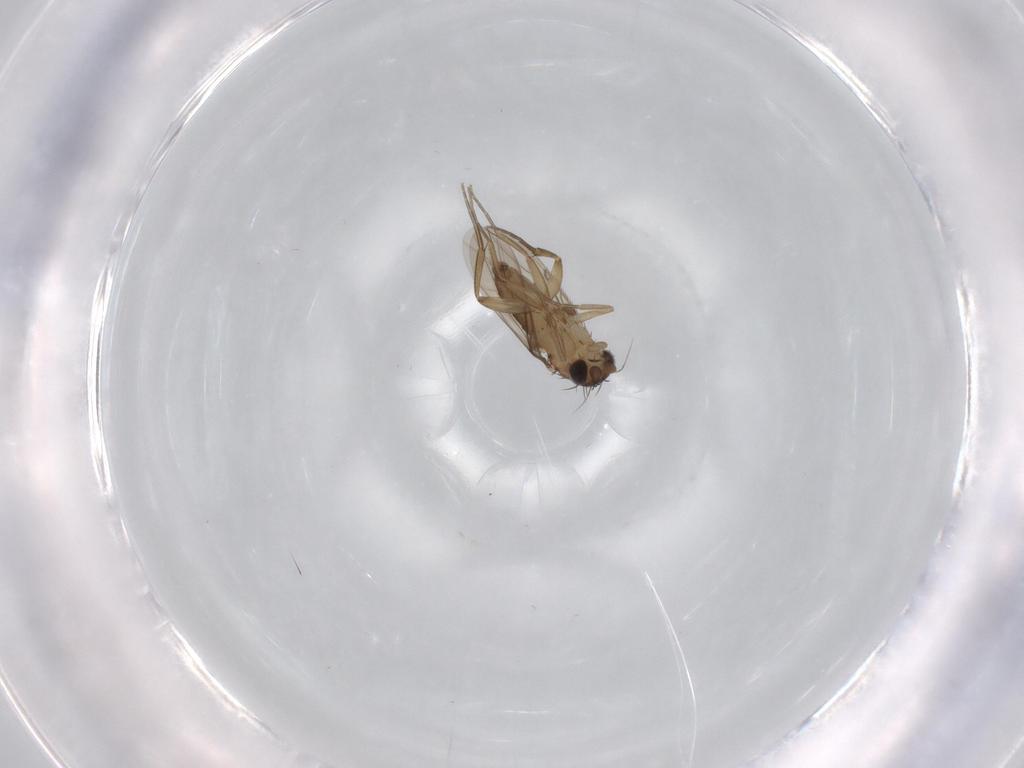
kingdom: Animalia
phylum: Arthropoda
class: Insecta
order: Diptera
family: Phoridae
